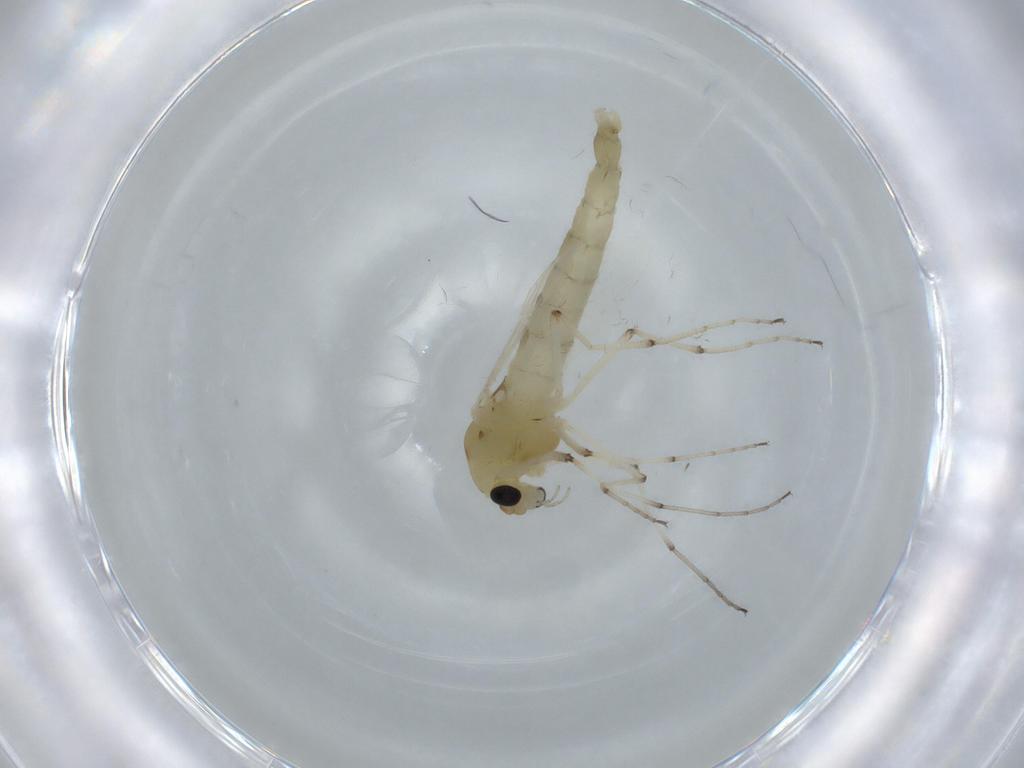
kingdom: Animalia
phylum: Arthropoda
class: Insecta
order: Diptera
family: Chironomidae
